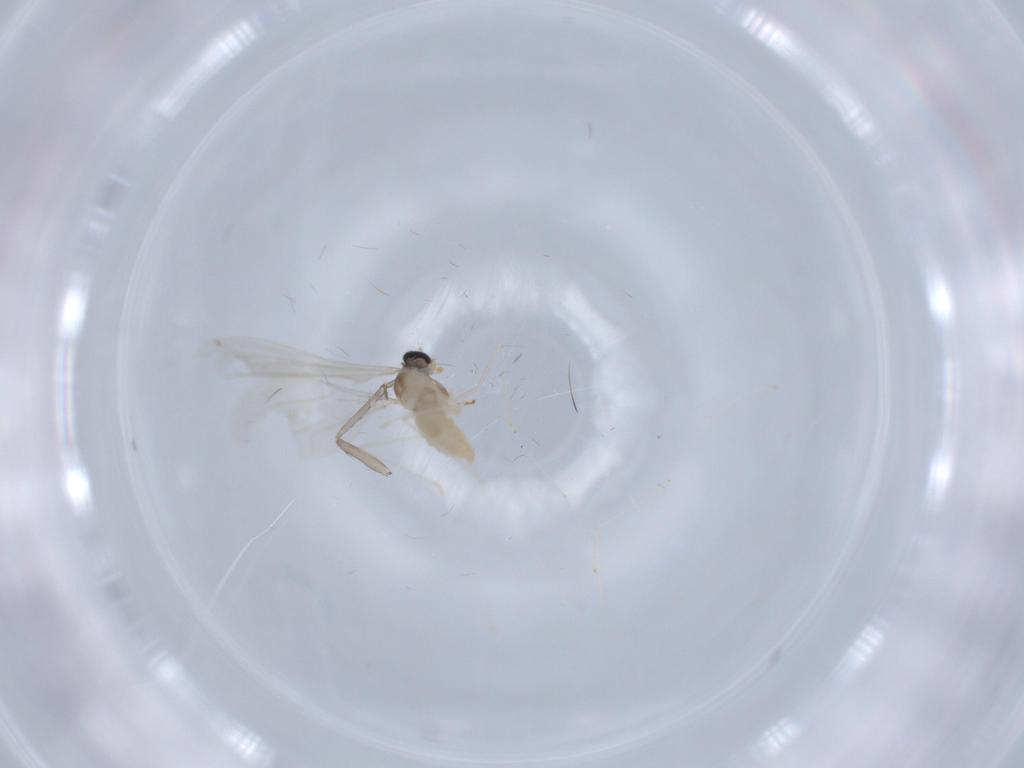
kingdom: Animalia
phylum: Arthropoda
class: Insecta
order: Diptera
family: Cecidomyiidae
